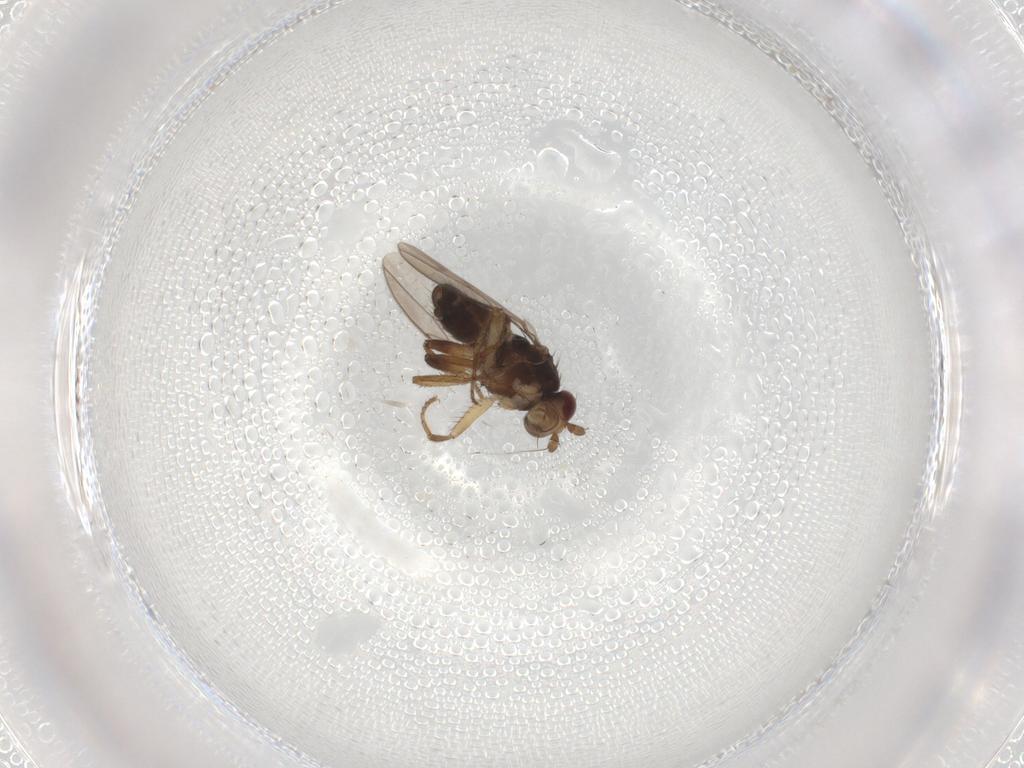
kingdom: Animalia
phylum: Arthropoda
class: Insecta
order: Diptera
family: Sphaeroceridae
